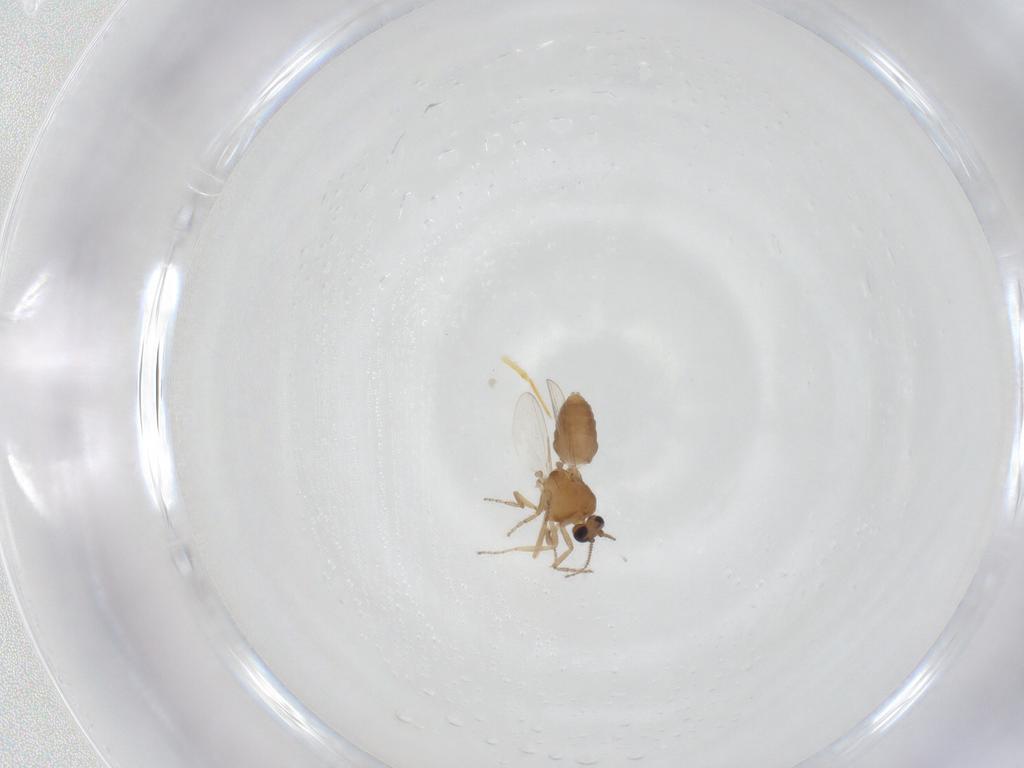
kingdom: Animalia
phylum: Arthropoda
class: Insecta
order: Diptera
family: Ceratopogonidae
